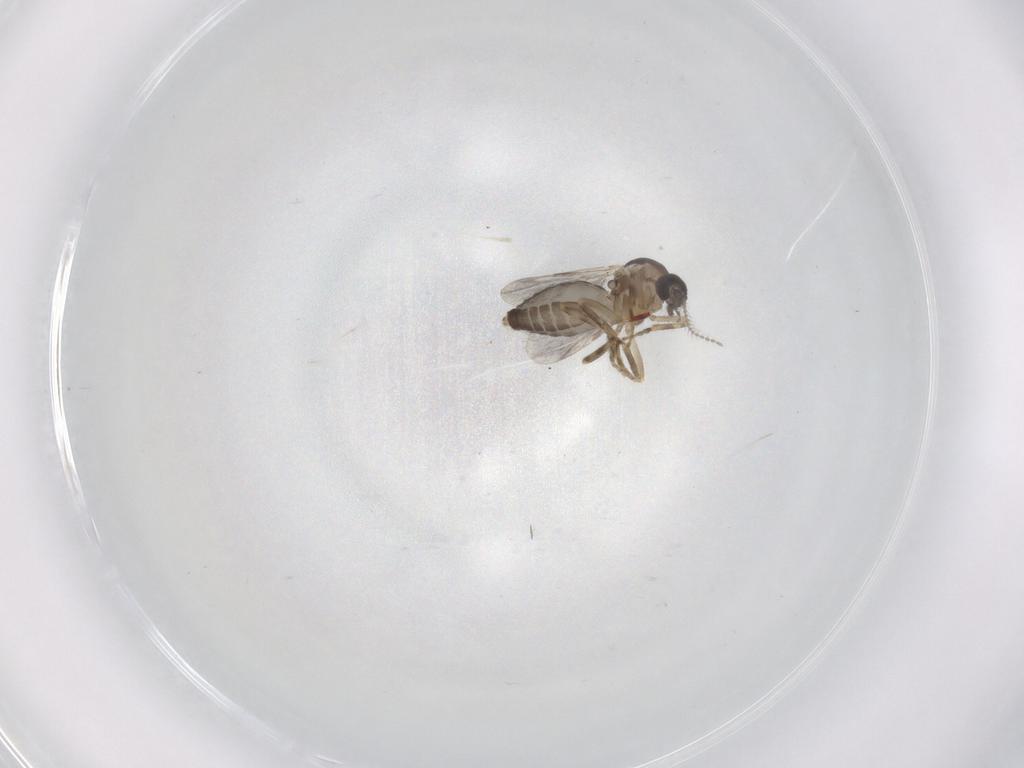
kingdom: Animalia
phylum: Arthropoda
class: Insecta
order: Diptera
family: Ceratopogonidae
